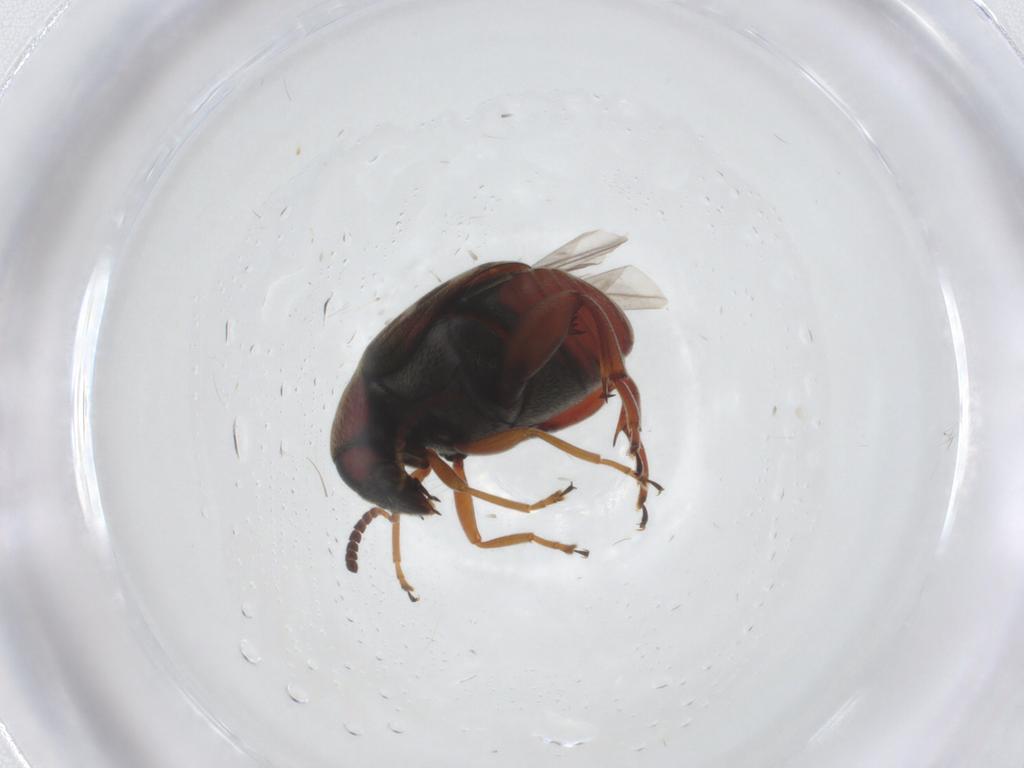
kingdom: Animalia
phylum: Arthropoda
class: Insecta
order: Coleoptera
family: Chrysomelidae
